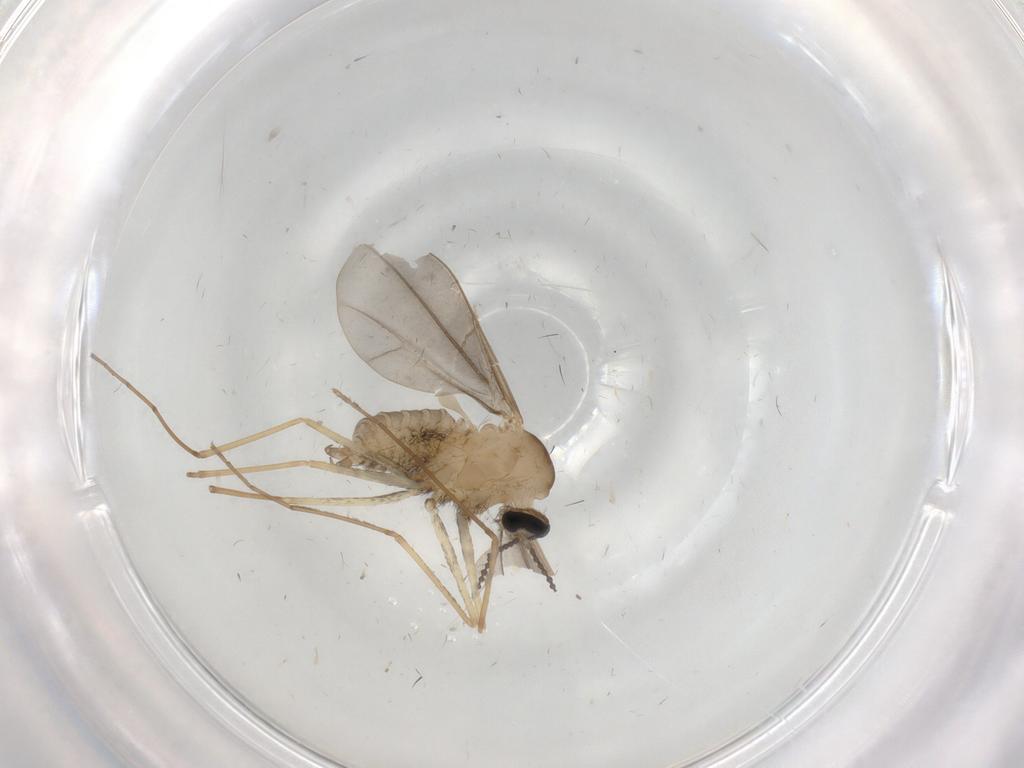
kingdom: Animalia
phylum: Arthropoda
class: Insecta
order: Diptera
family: Cecidomyiidae
